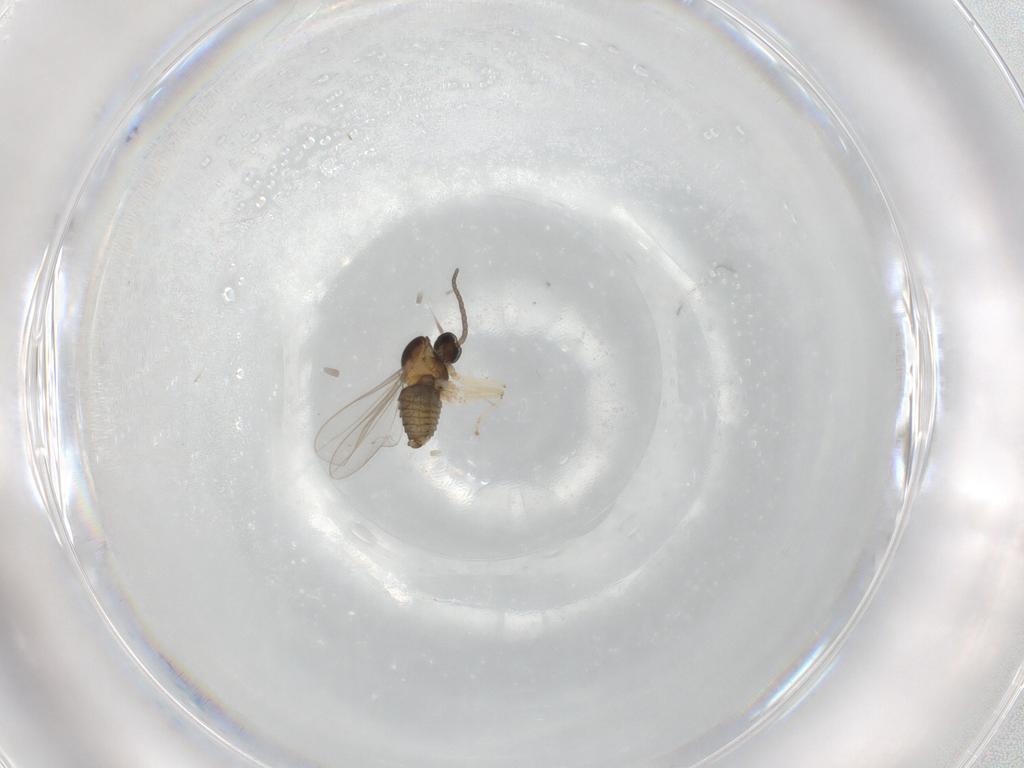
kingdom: Animalia
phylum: Arthropoda
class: Insecta
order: Diptera
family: Cecidomyiidae
